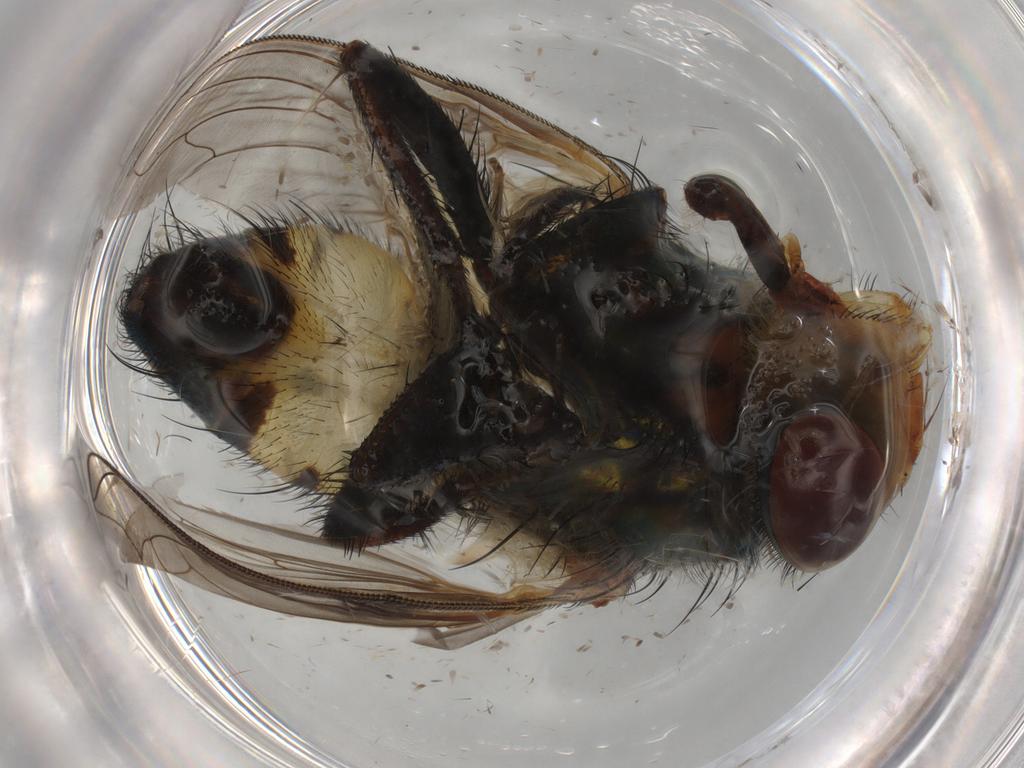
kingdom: Animalia
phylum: Arthropoda
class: Insecta
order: Diptera
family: Calliphoridae
